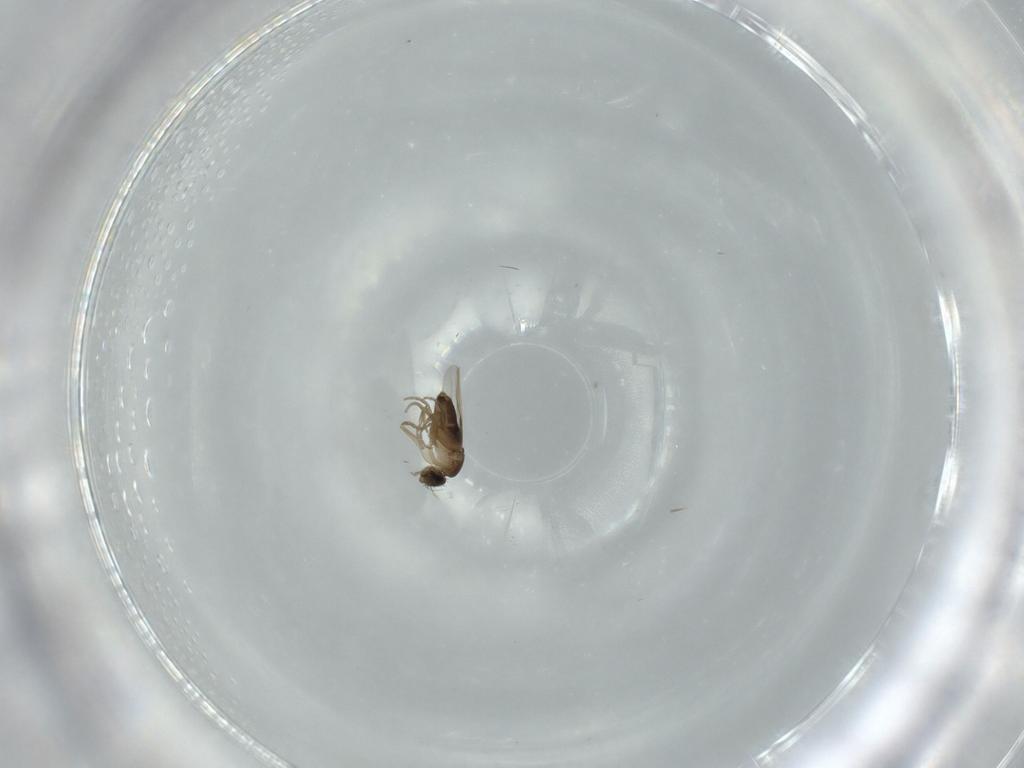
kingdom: Animalia
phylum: Arthropoda
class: Insecta
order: Diptera
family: Phoridae
